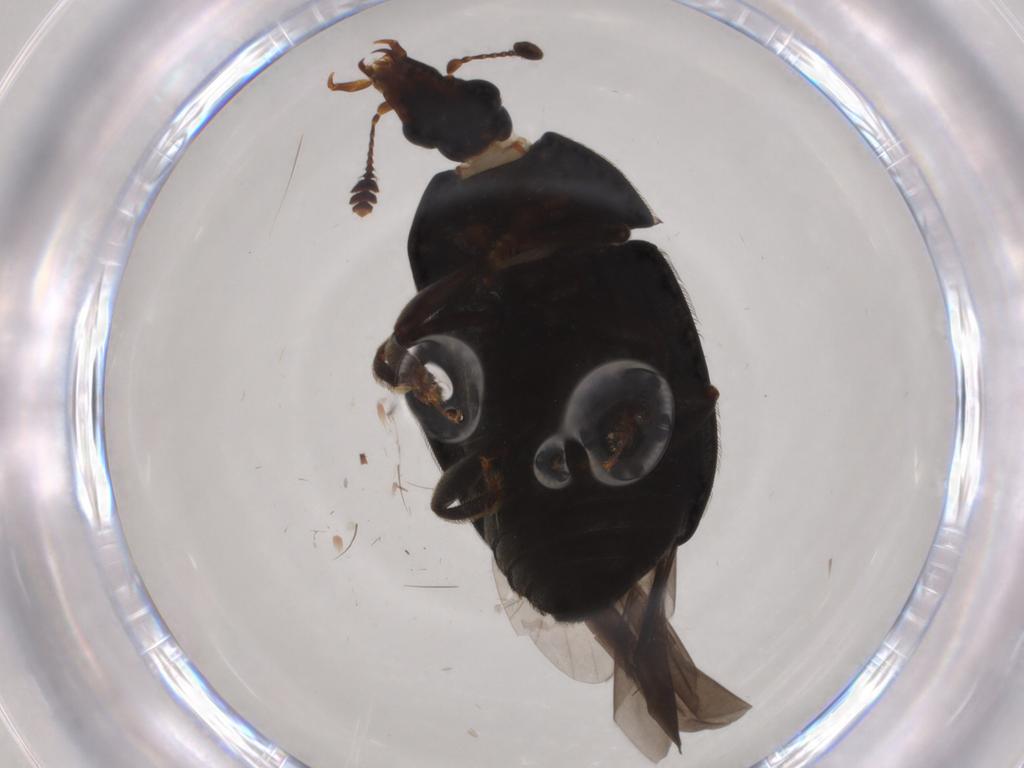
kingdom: Animalia
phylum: Arthropoda
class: Insecta
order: Coleoptera
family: Ptilodactylidae
